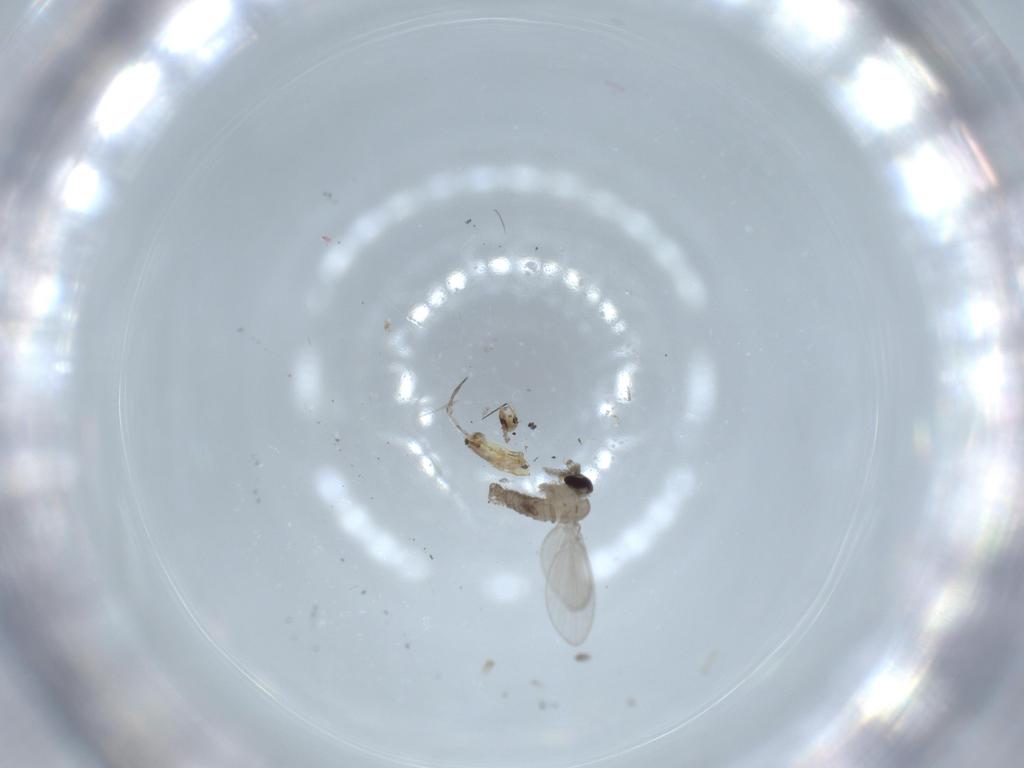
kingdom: Animalia
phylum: Arthropoda
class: Insecta
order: Diptera
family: Psychodidae
